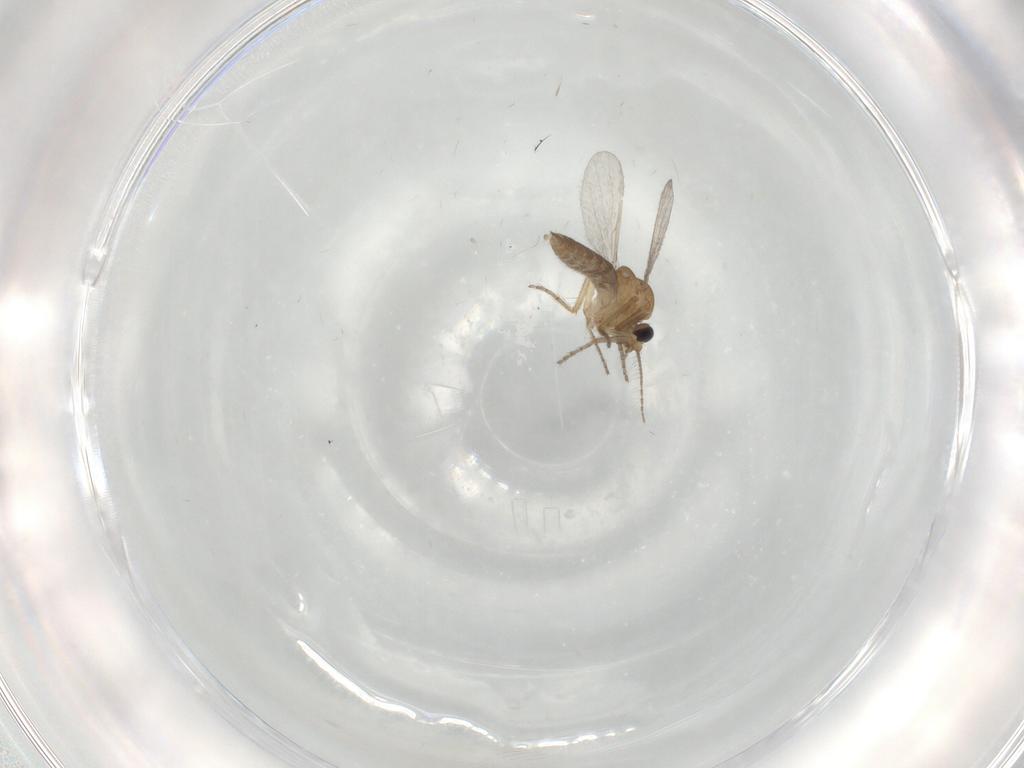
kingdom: Animalia
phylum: Arthropoda
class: Insecta
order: Diptera
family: Ceratopogonidae
